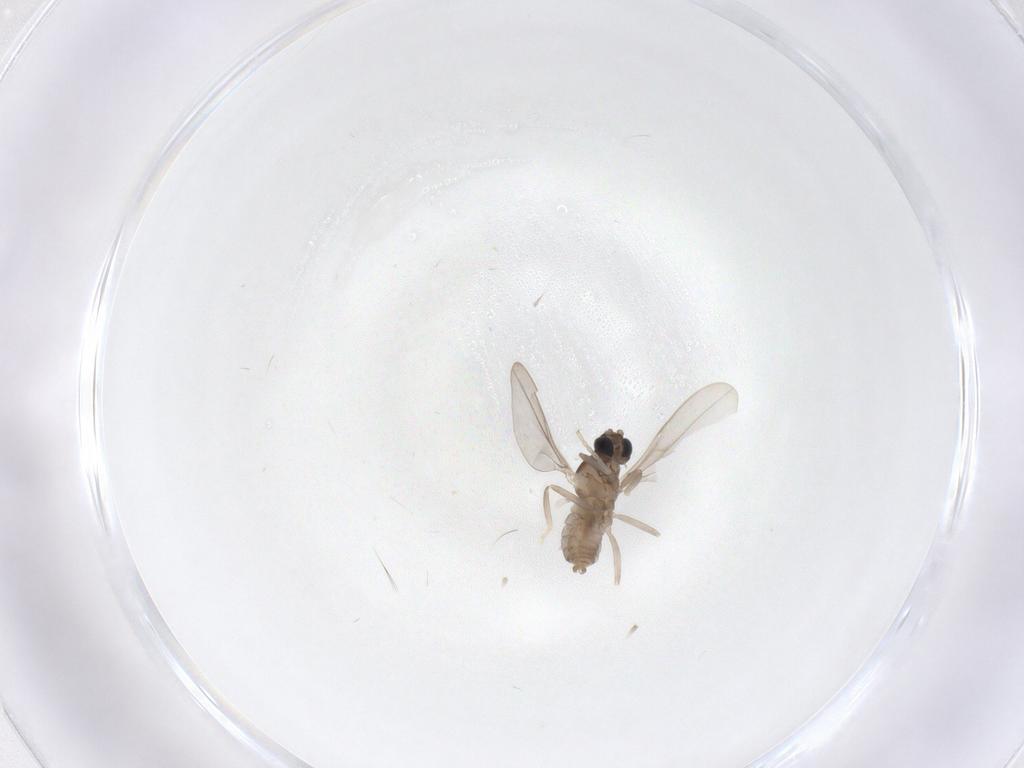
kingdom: Animalia
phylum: Arthropoda
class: Insecta
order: Diptera
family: Cecidomyiidae
